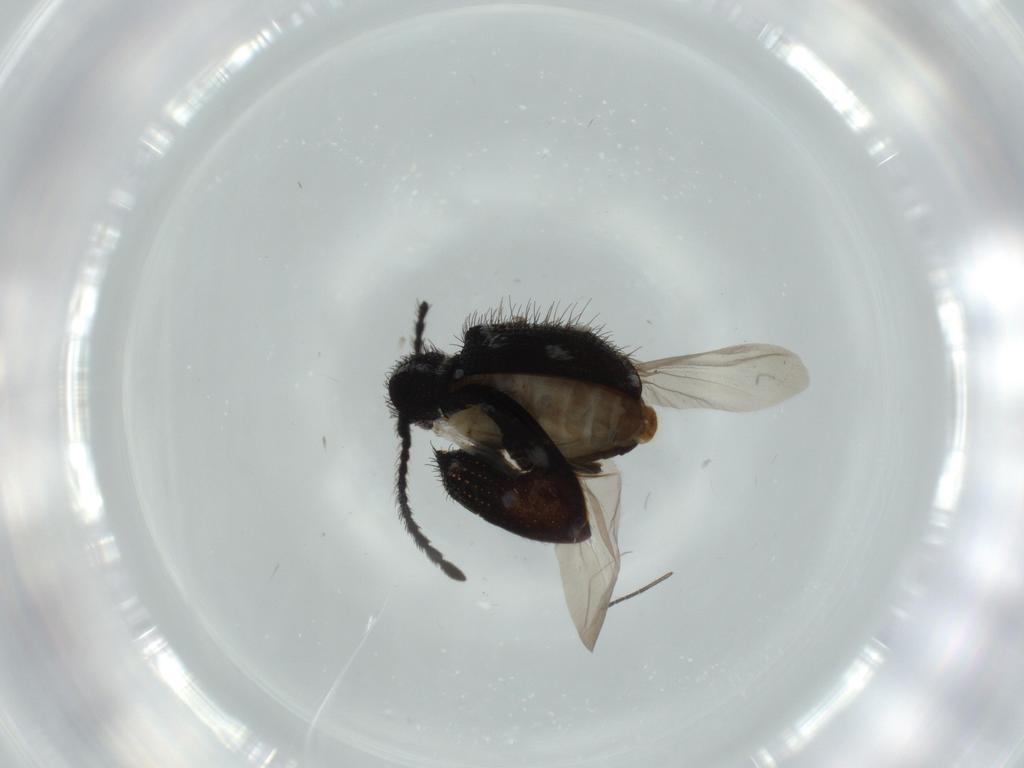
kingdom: Animalia
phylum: Arthropoda
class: Insecta
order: Coleoptera
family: Ptinidae
